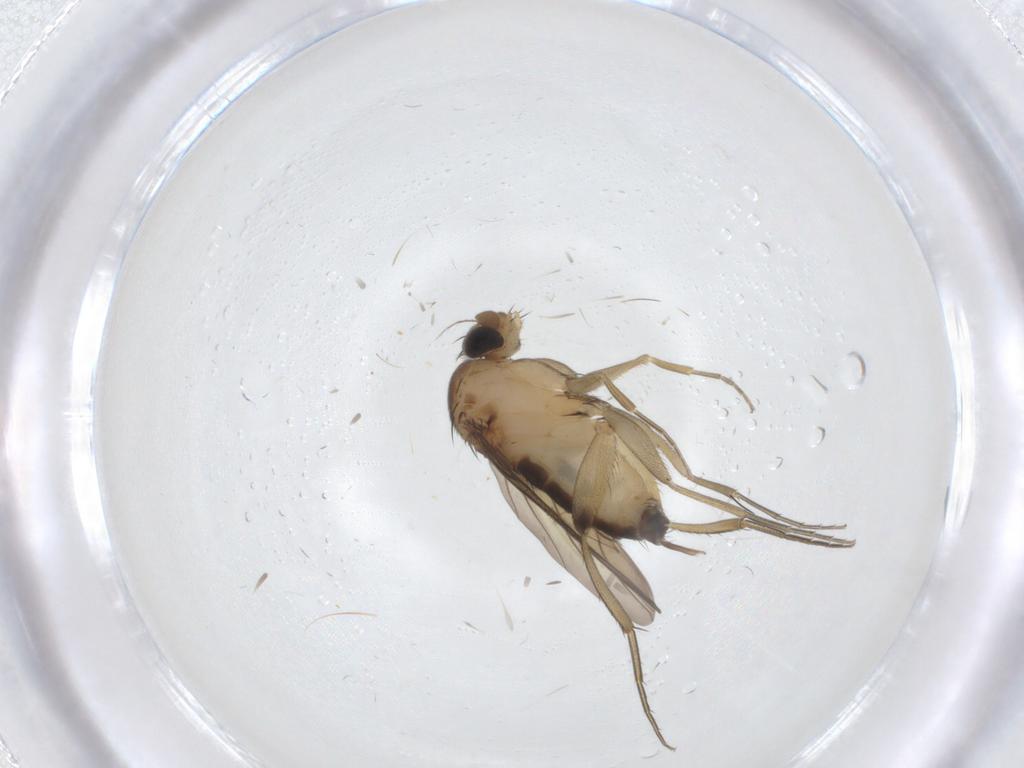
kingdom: Animalia
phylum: Arthropoda
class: Insecta
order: Diptera
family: Phoridae
